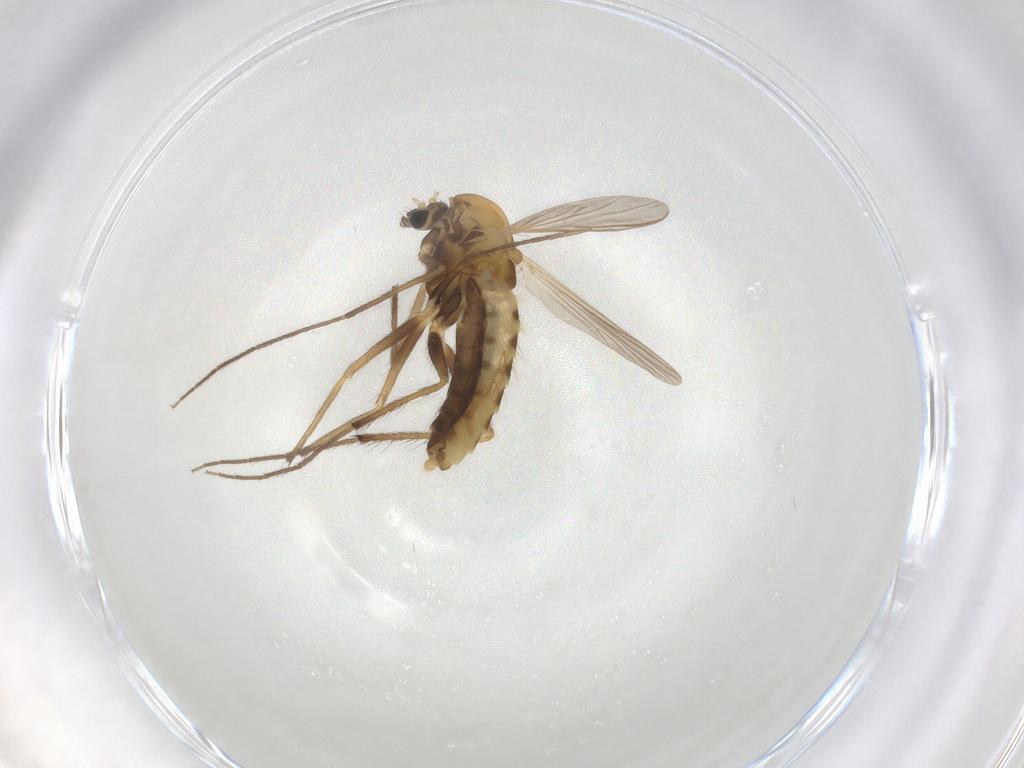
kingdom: Animalia
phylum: Arthropoda
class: Insecta
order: Diptera
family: Chironomidae
